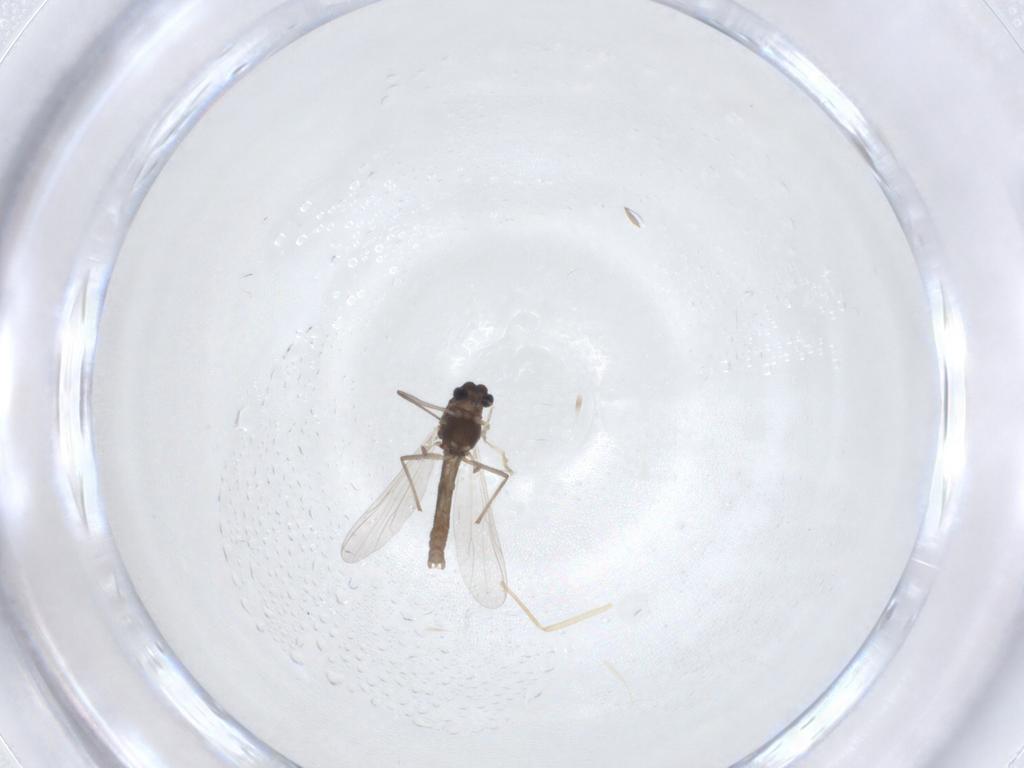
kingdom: Animalia
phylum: Arthropoda
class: Insecta
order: Diptera
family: Chironomidae
